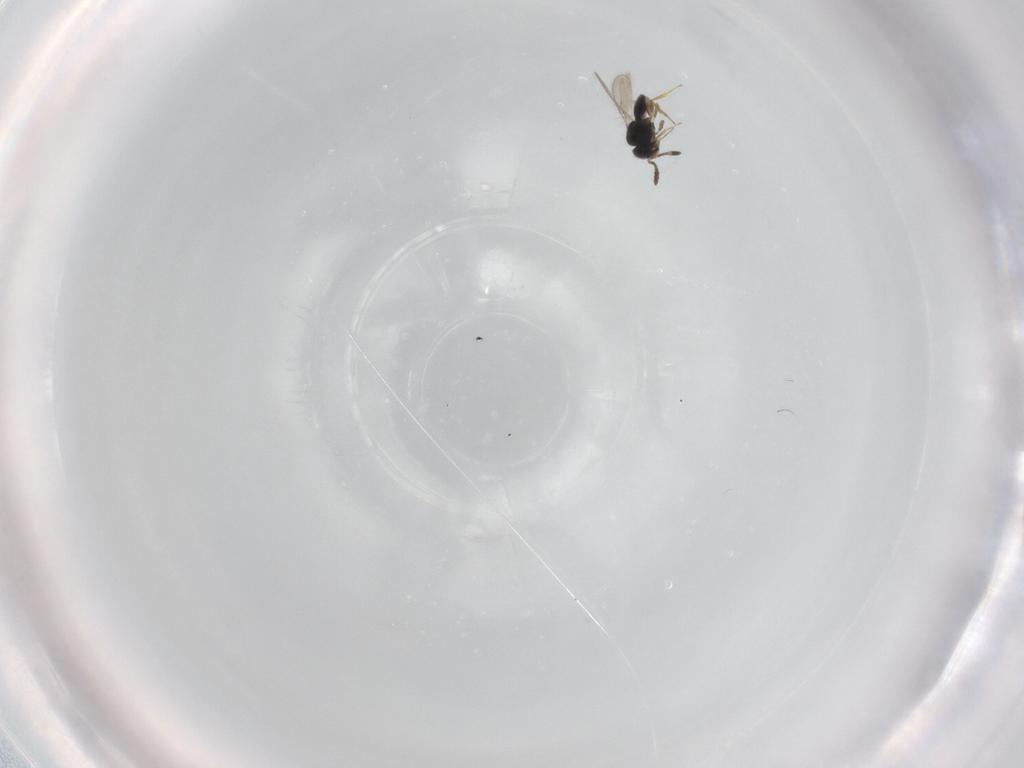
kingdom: Animalia
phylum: Arthropoda
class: Insecta
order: Hymenoptera
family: Scelionidae
